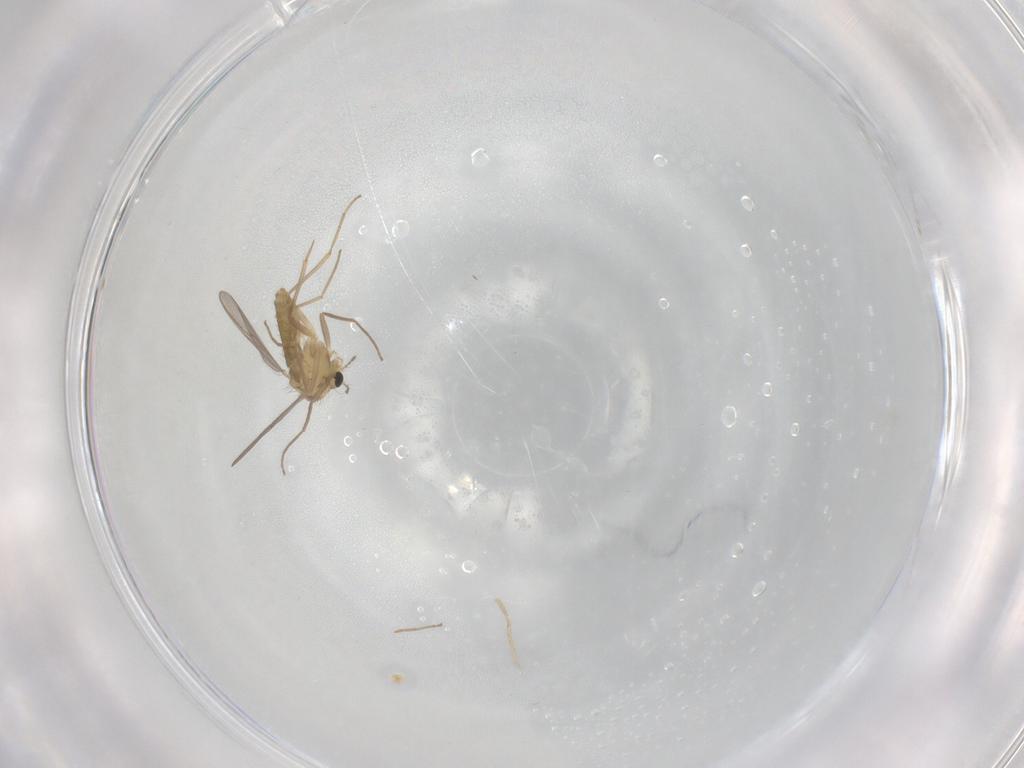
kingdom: Animalia
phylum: Arthropoda
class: Insecta
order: Diptera
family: Chironomidae
